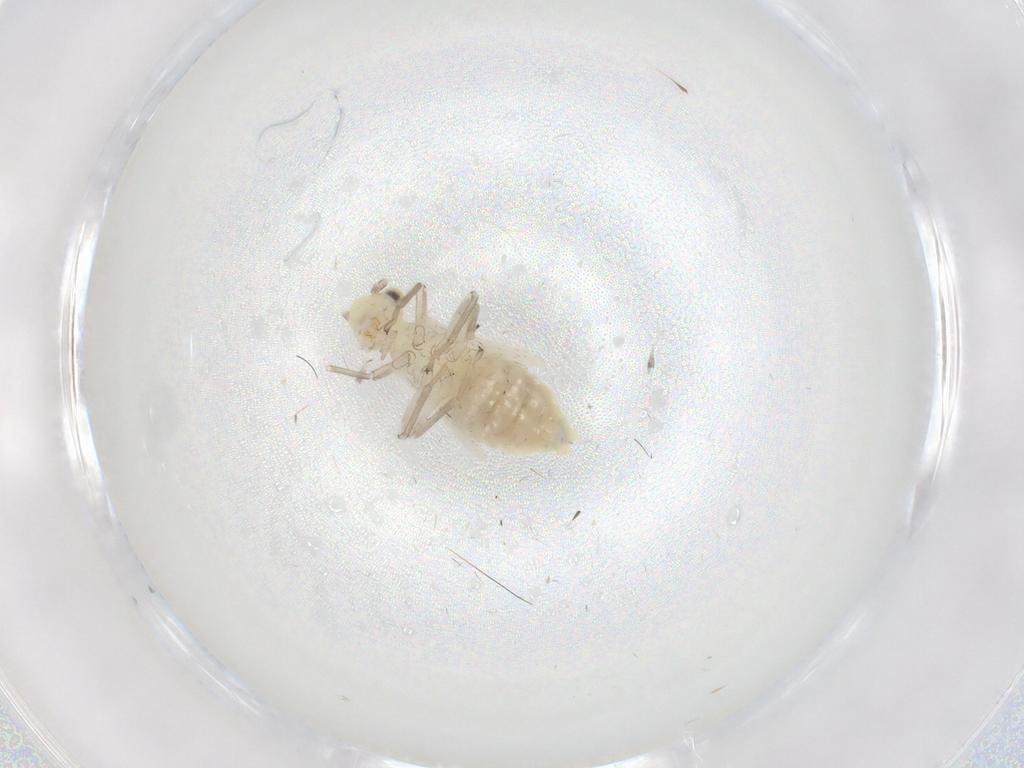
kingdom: Animalia
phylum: Arthropoda
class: Insecta
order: Psocodea
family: Caeciliusidae
